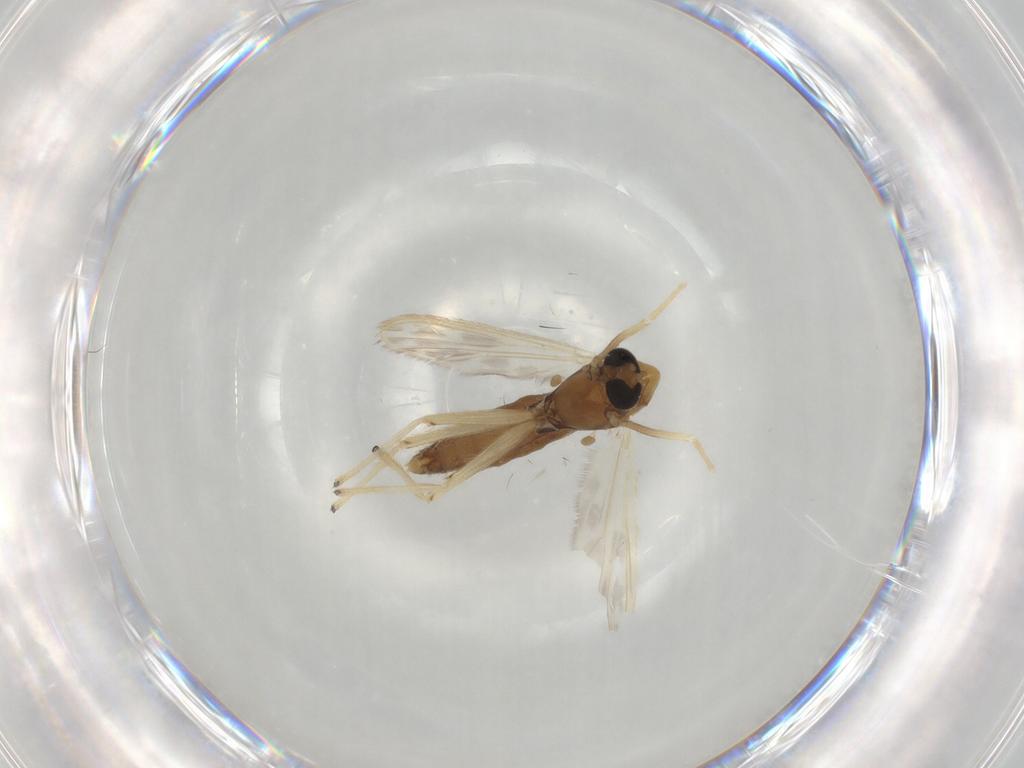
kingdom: Animalia
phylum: Arthropoda
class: Insecta
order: Diptera
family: Chironomidae
